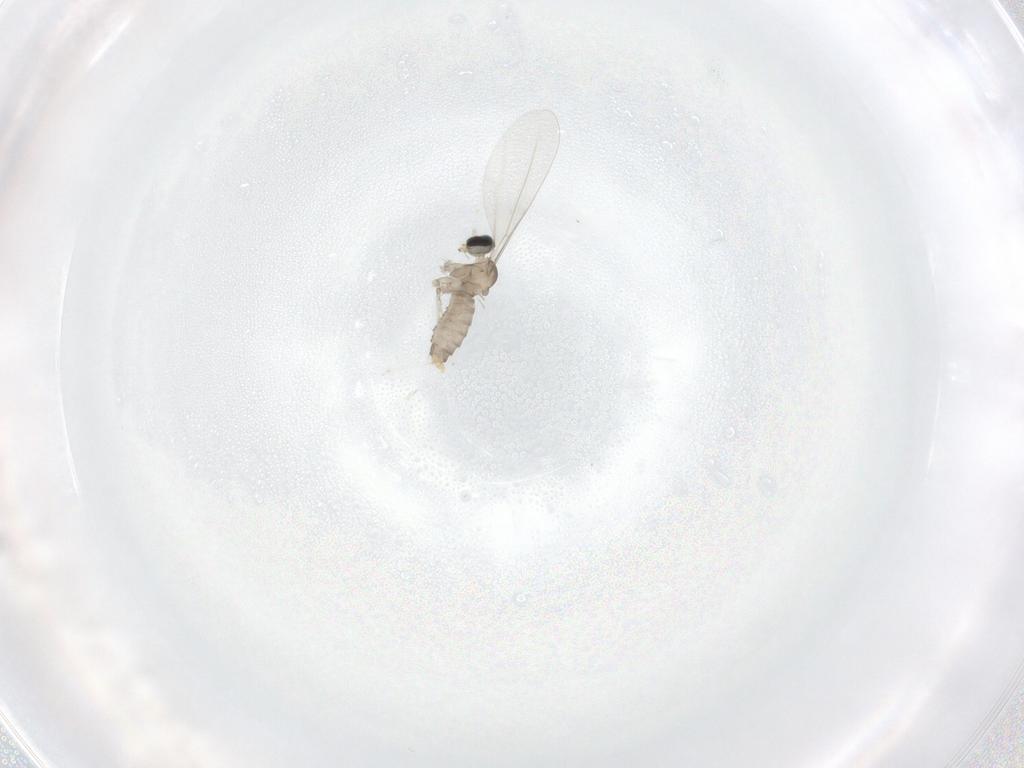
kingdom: Animalia
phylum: Arthropoda
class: Insecta
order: Diptera
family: Cecidomyiidae
